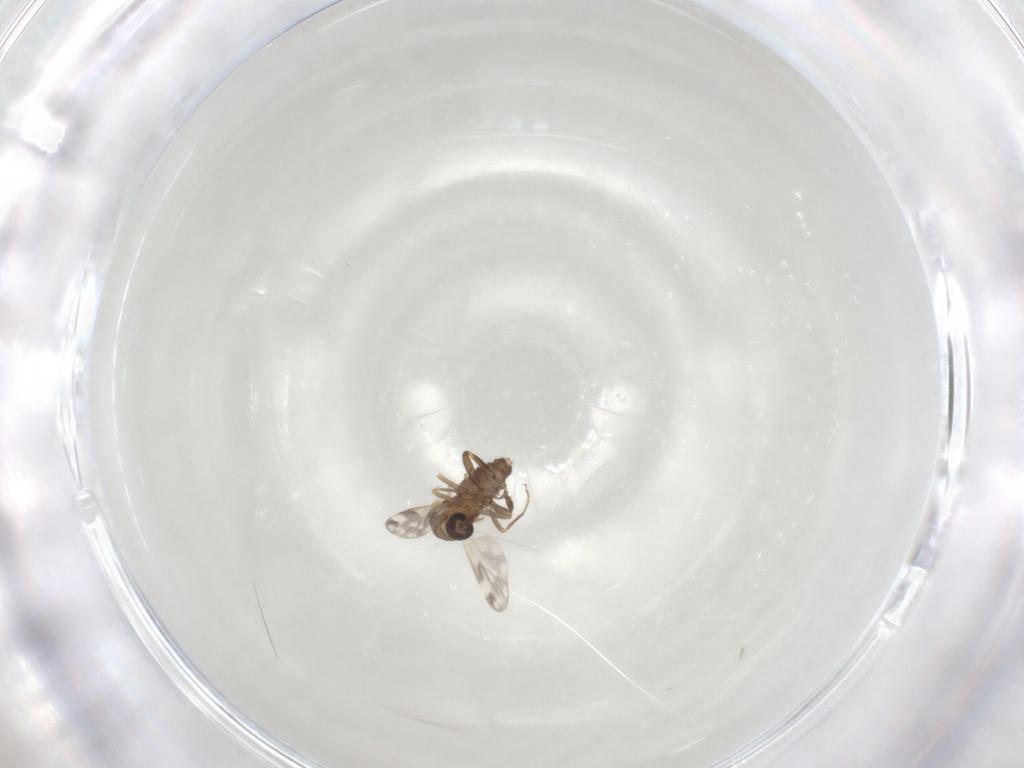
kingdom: Animalia
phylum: Arthropoda
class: Insecta
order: Diptera
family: Ceratopogonidae
